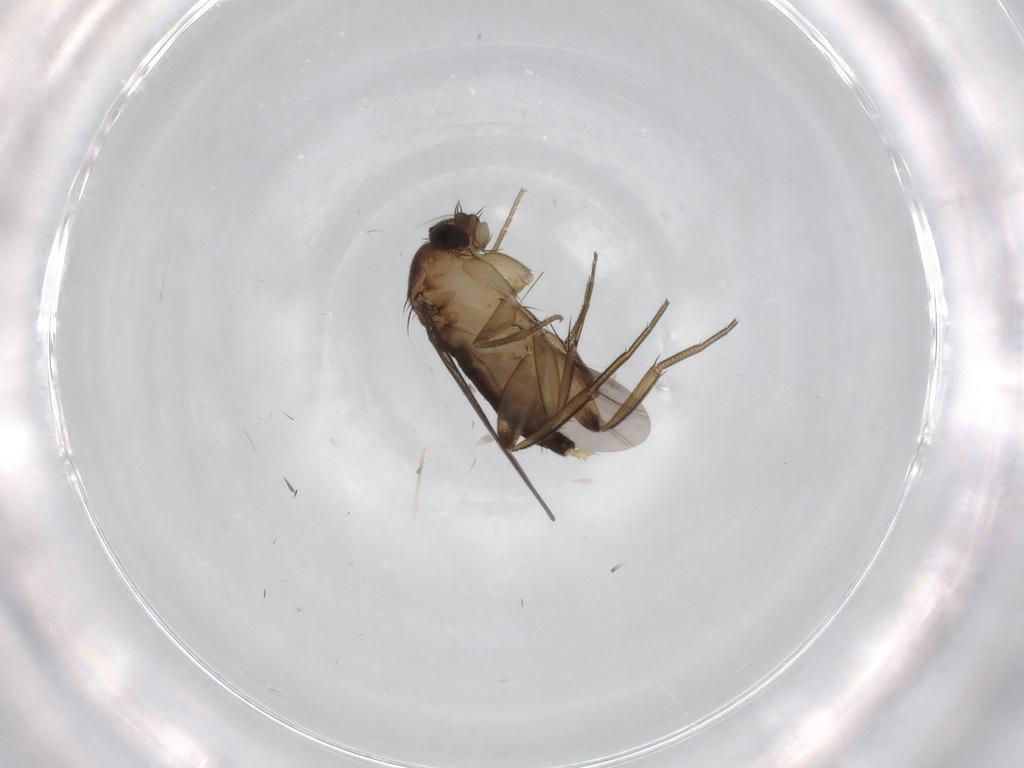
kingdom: Animalia
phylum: Arthropoda
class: Insecta
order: Diptera
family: Phoridae
